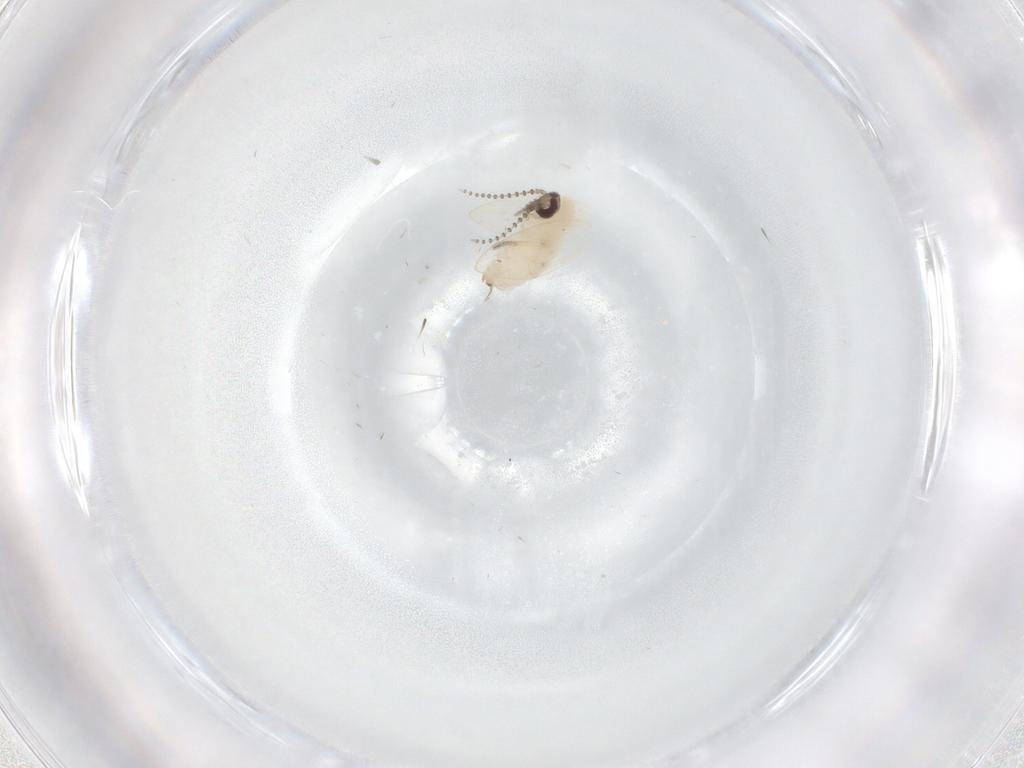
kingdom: Animalia
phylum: Arthropoda
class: Insecta
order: Diptera
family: Psychodidae
